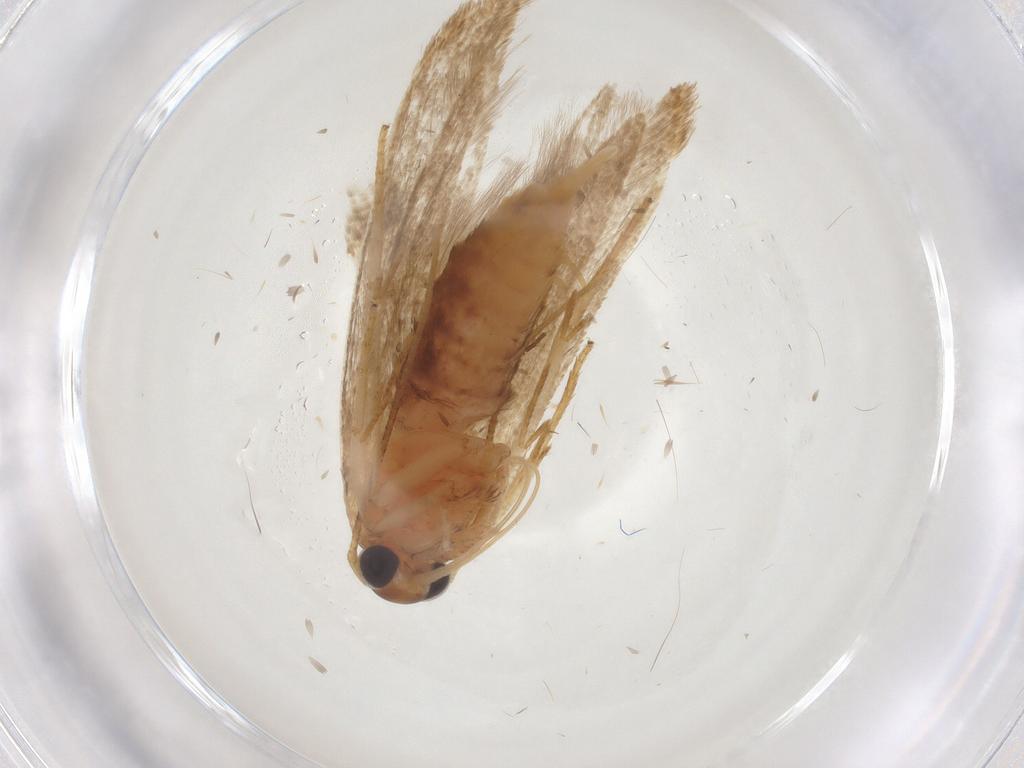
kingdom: Animalia
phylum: Arthropoda
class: Insecta
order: Lepidoptera
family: Blastobasidae
